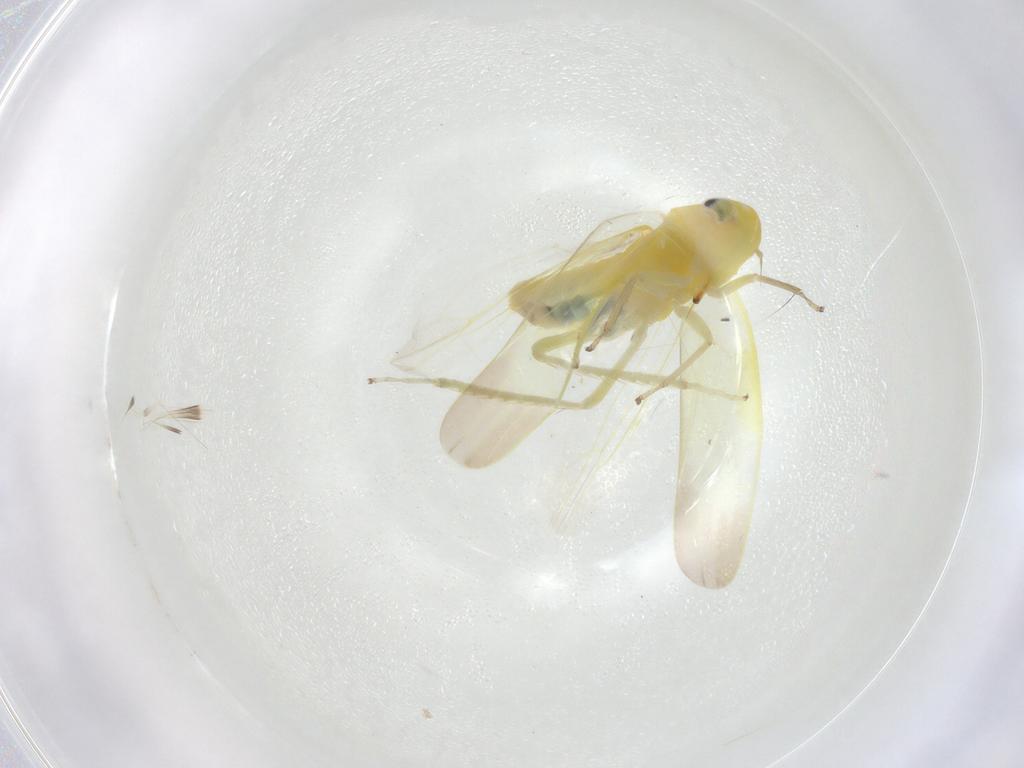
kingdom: Animalia
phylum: Arthropoda
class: Insecta
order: Hemiptera
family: Cicadellidae
